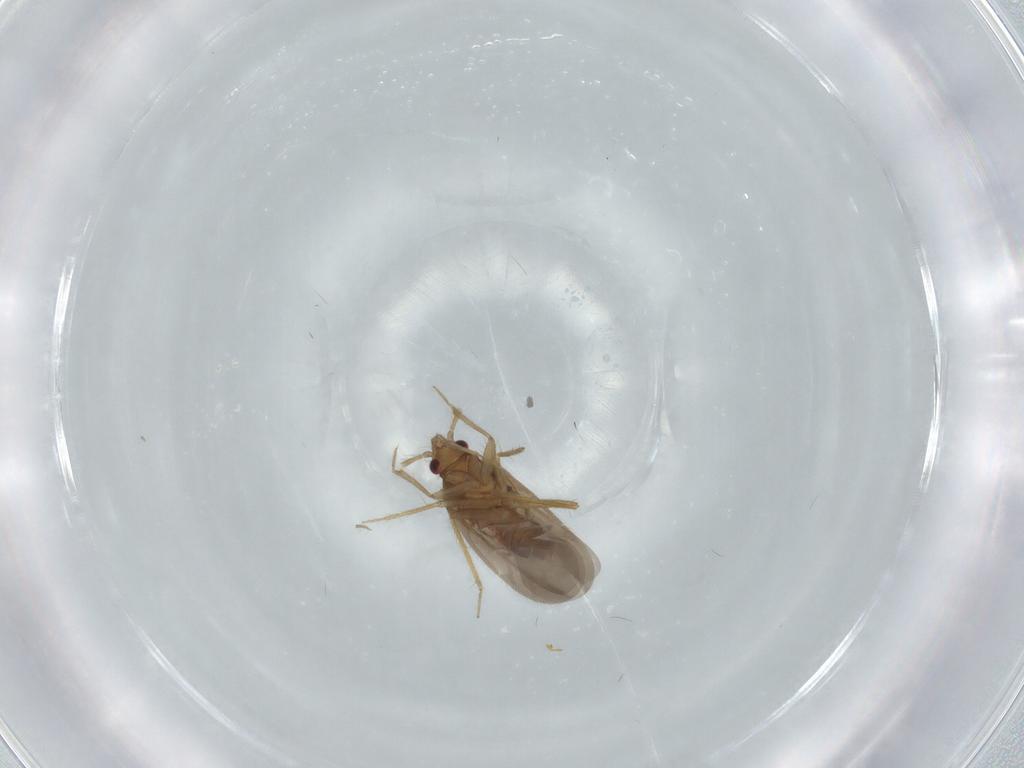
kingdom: Animalia
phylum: Arthropoda
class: Insecta
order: Hemiptera
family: Ceratocombidae
